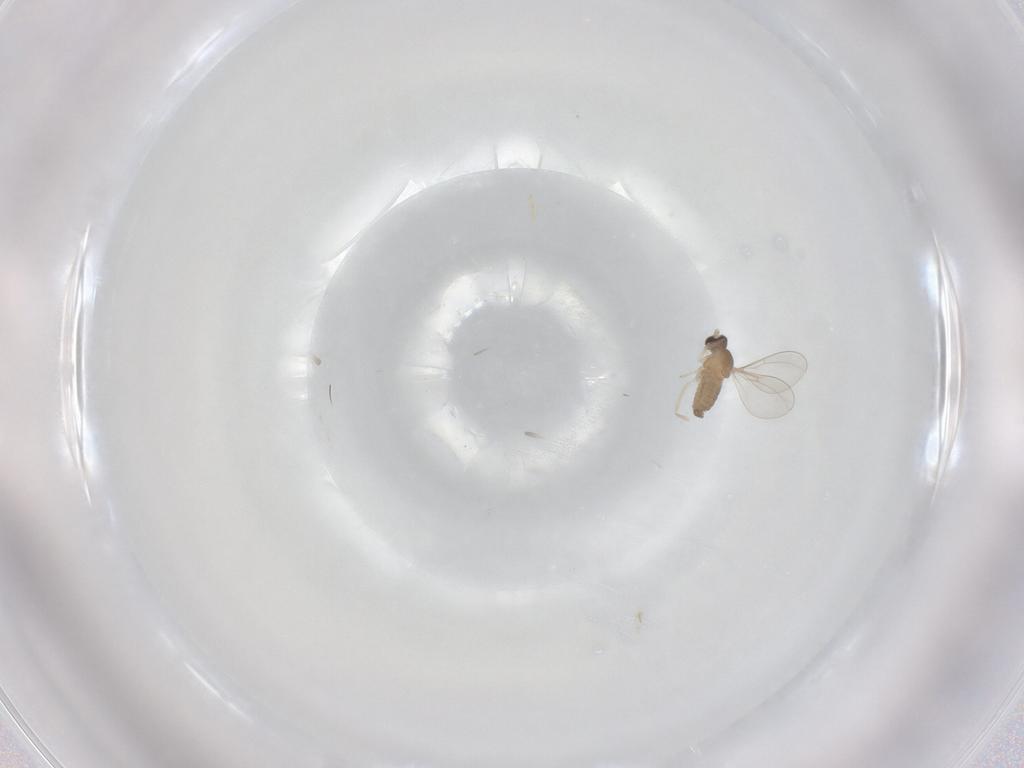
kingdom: Animalia
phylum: Arthropoda
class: Insecta
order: Diptera
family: Cecidomyiidae
